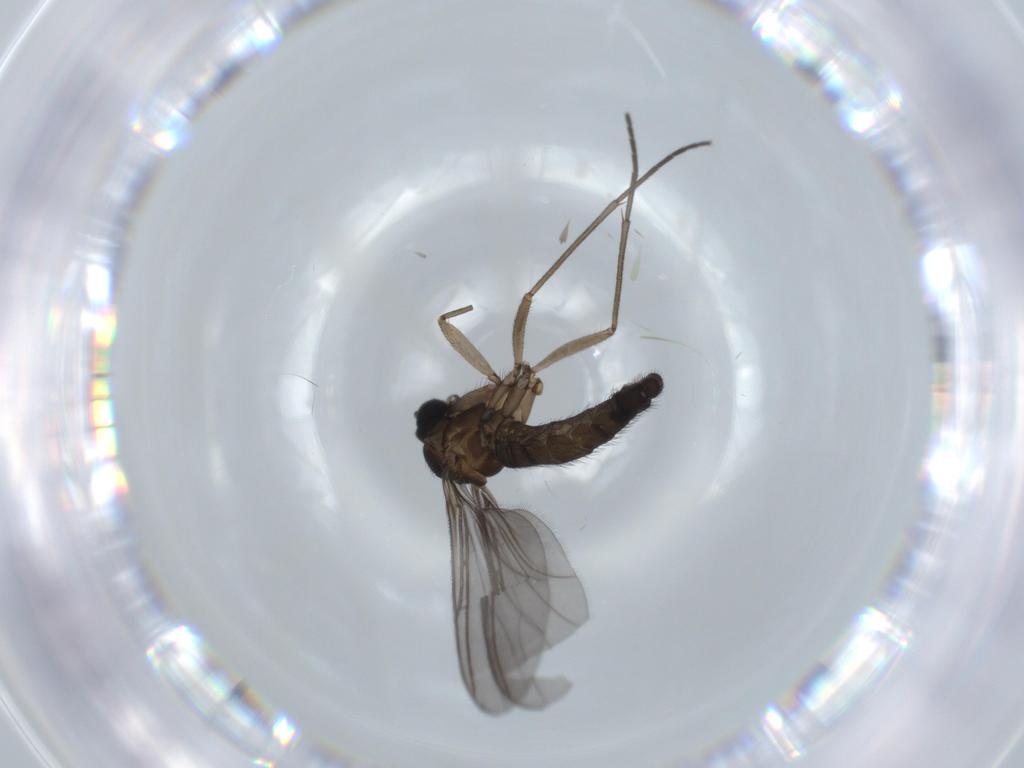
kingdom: Animalia
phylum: Arthropoda
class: Insecta
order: Diptera
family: Sciaridae
